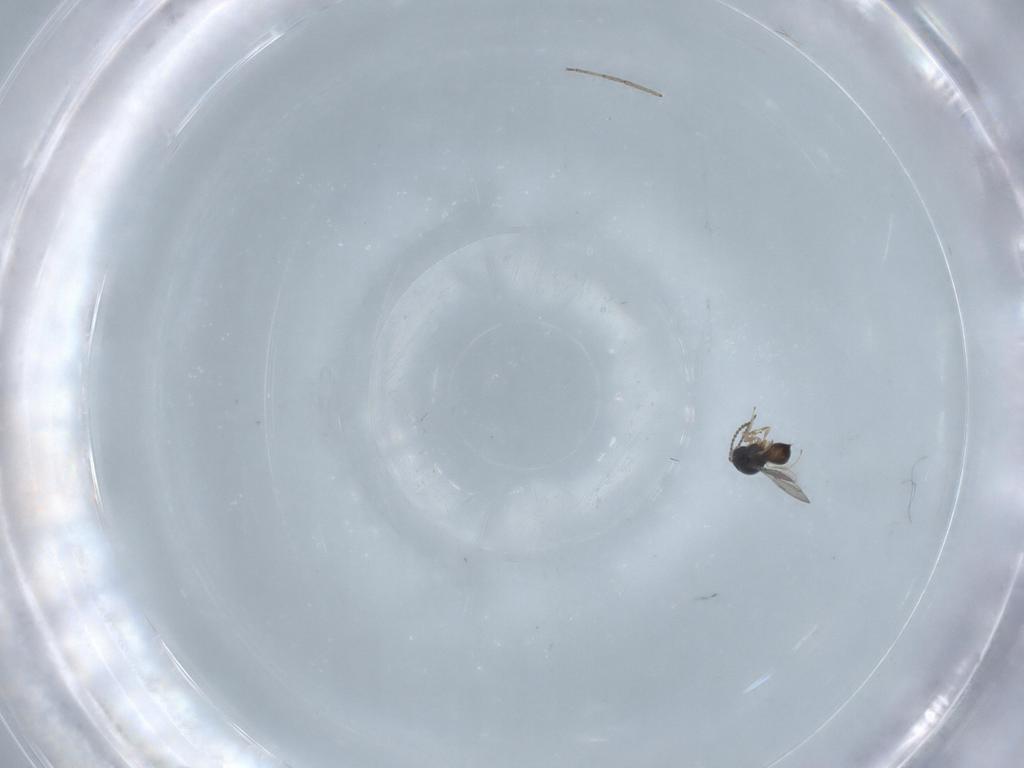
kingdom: Animalia
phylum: Arthropoda
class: Insecta
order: Hymenoptera
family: Scelionidae
